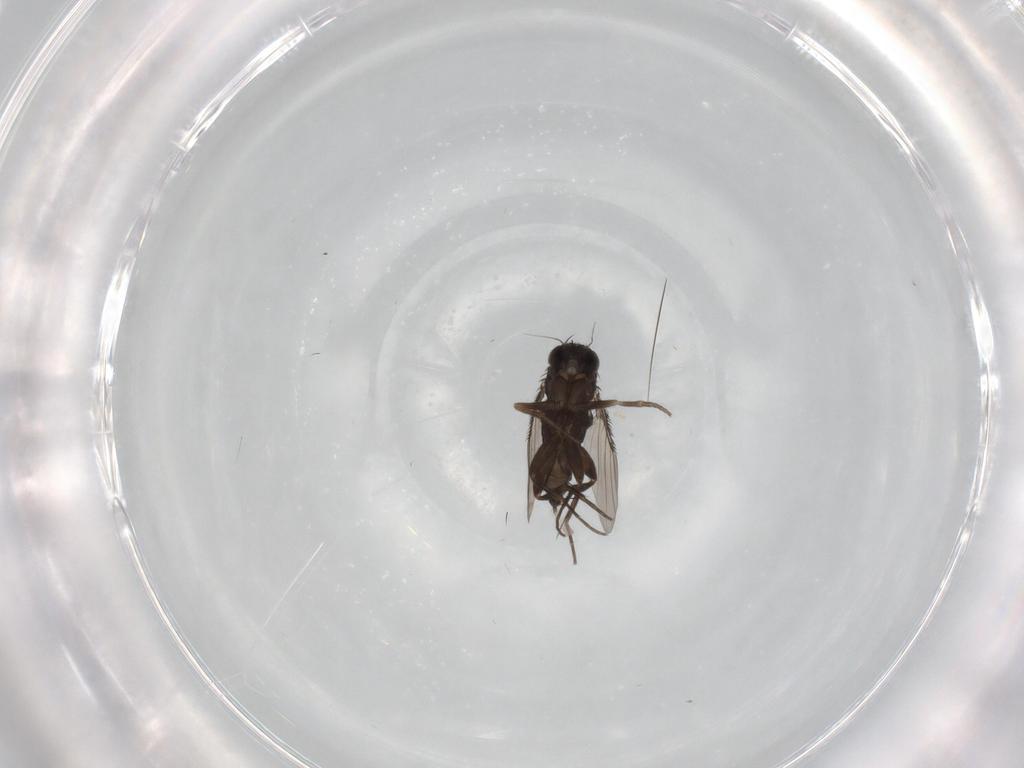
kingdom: Animalia
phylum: Arthropoda
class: Insecta
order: Diptera
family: Phoridae
